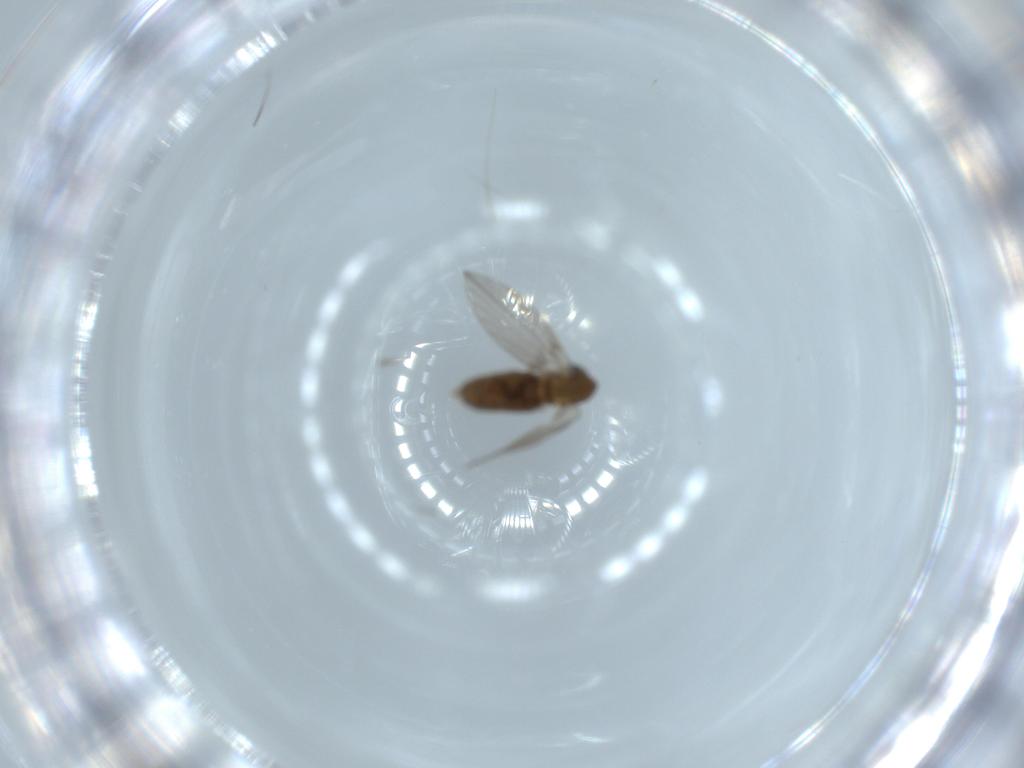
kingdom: Animalia
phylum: Arthropoda
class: Insecta
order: Diptera
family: Psychodidae
